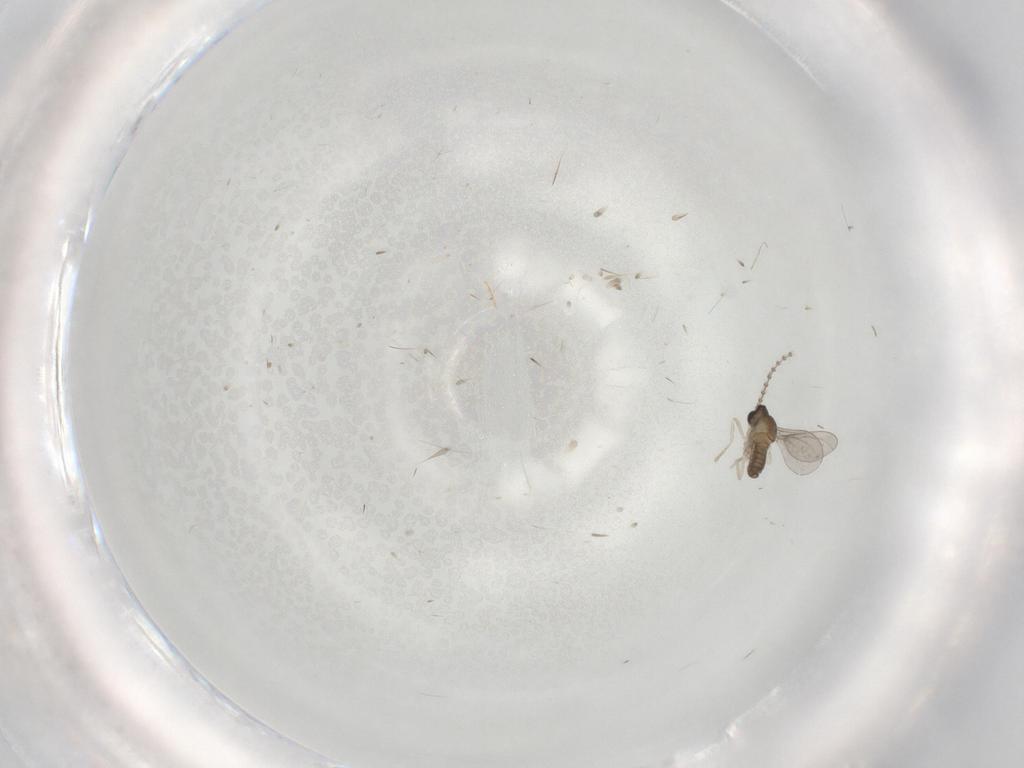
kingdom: Animalia
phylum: Arthropoda
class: Insecta
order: Diptera
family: Cecidomyiidae
